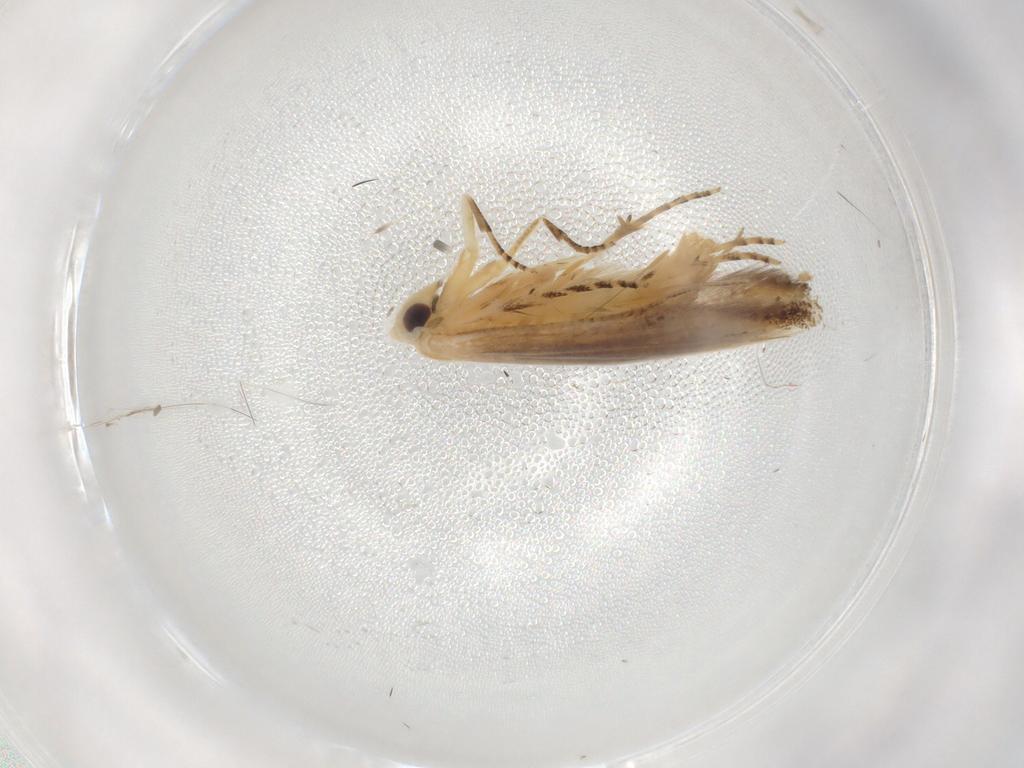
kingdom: Animalia
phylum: Arthropoda
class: Insecta
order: Lepidoptera
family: Bucculatricidae
